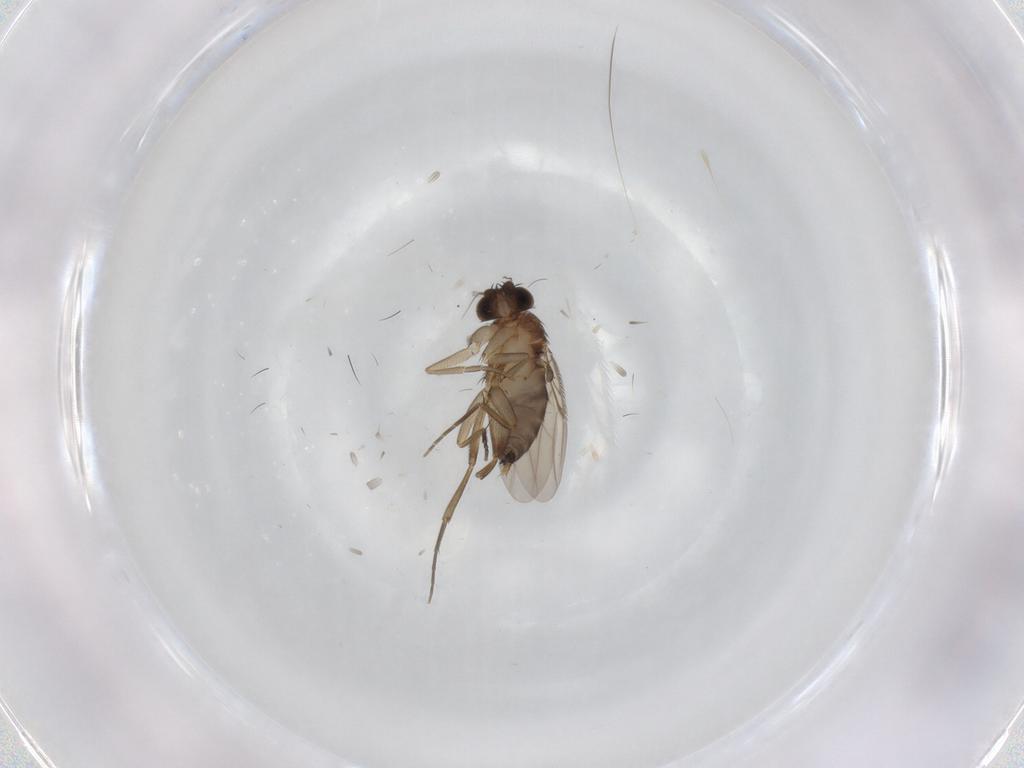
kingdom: Animalia
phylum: Arthropoda
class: Insecta
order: Diptera
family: Phoridae
